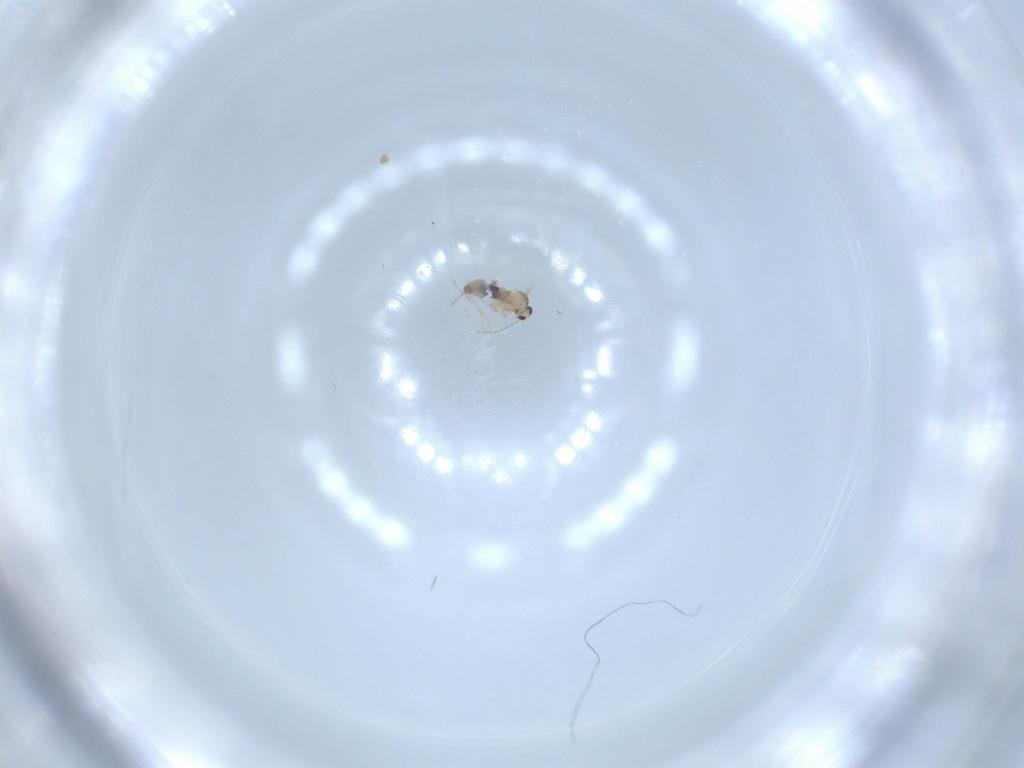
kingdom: Animalia
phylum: Arthropoda
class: Insecta
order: Diptera
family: Cecidomyiidae
